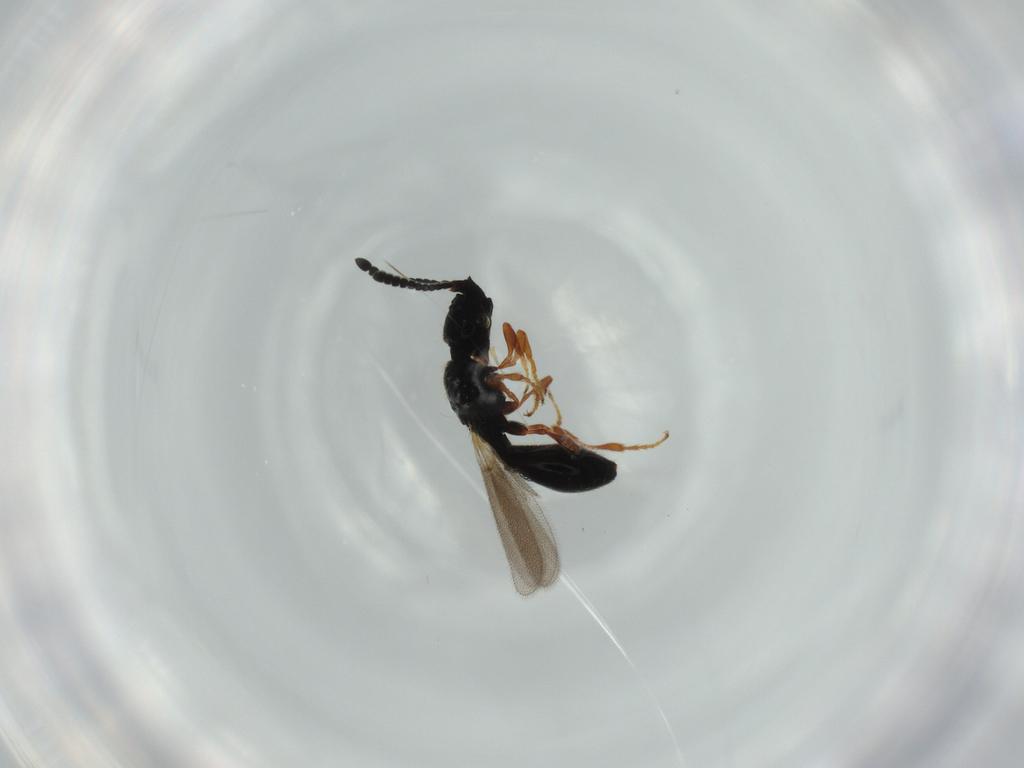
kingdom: Animalia
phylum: Arthropoda
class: Insecta
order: Hymenoptera
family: Diapriidae
